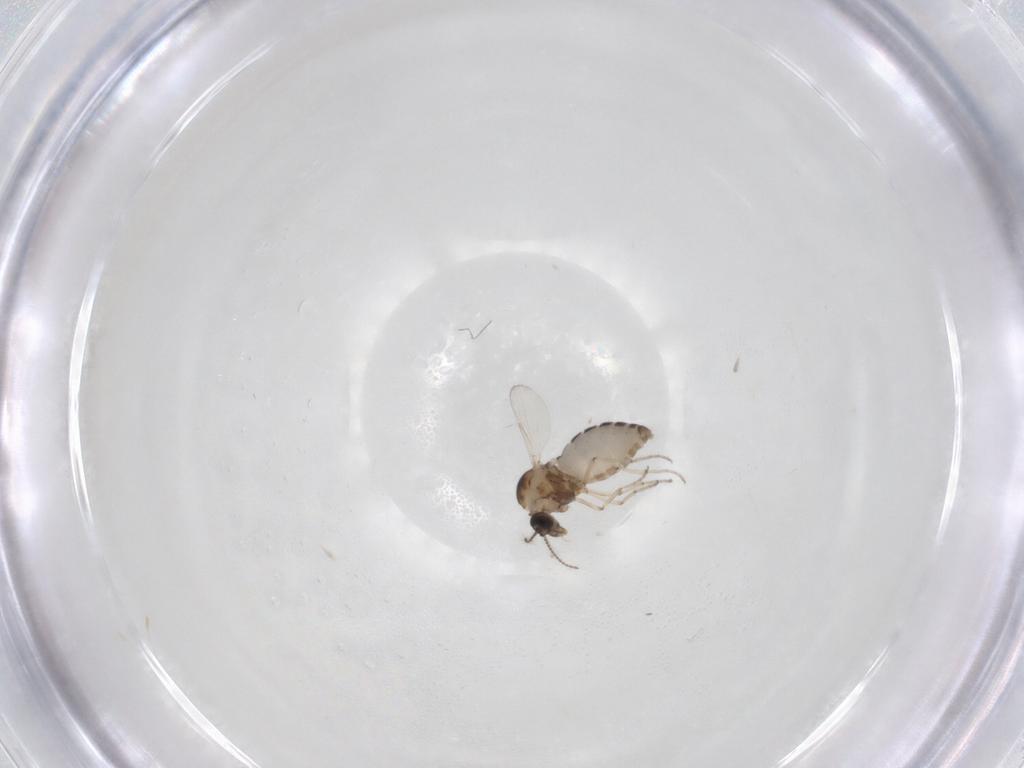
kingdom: Animalia
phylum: Arthropoda
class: Insecta
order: Diptera
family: Ceratopogonidae
